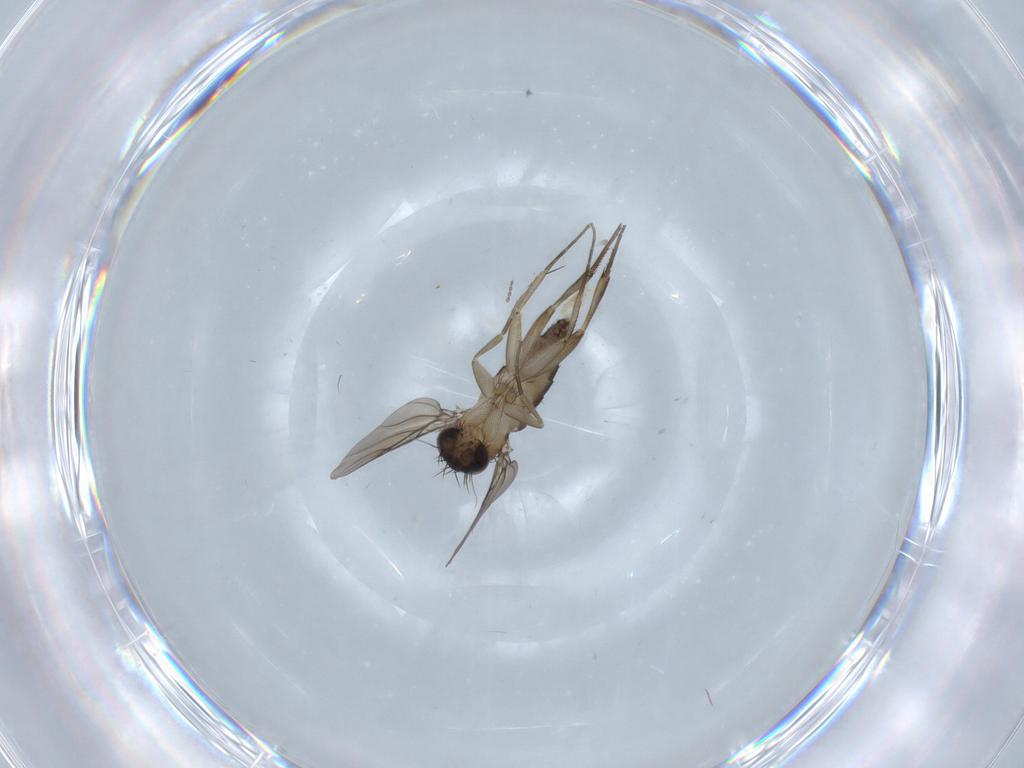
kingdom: Animalia
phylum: Arthropoda
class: Insecta
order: Diptera
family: Phoridae
